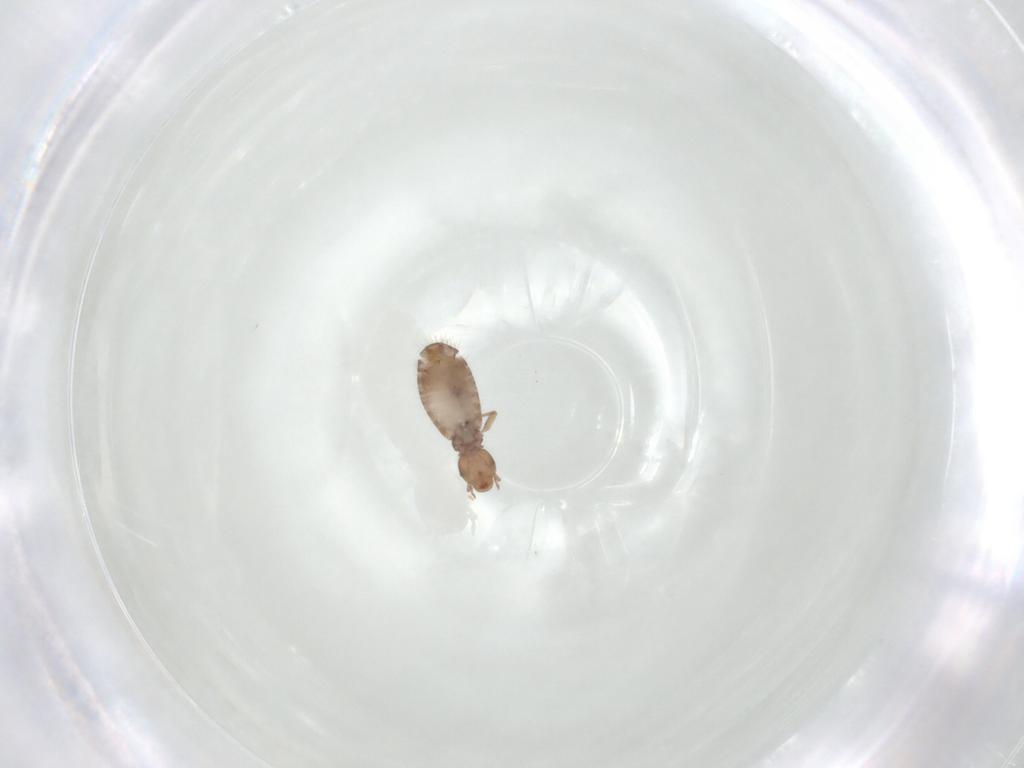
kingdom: Animalia
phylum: Arthropoda
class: Insecta
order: Psocodea
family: Liposcelididae
